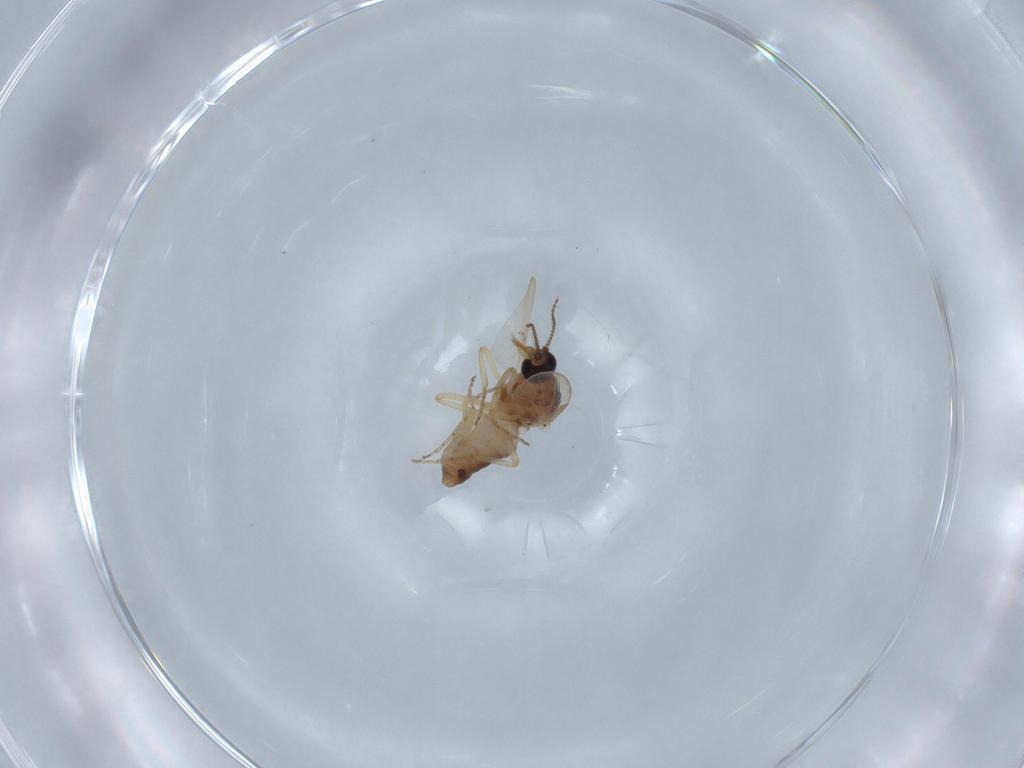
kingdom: Animalia
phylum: Arthropoda
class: Insecta
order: Diptera
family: Ceratopogonidae
